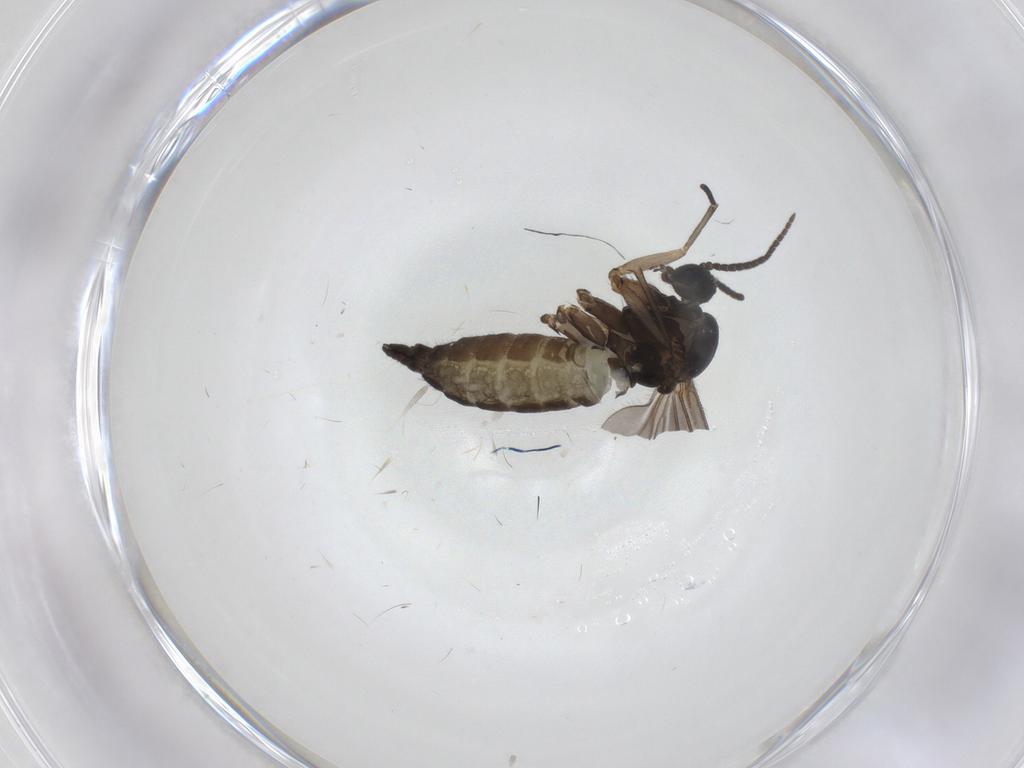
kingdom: Animalia
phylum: Arthropoda
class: Insecta
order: Diptera
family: Sciaridae
